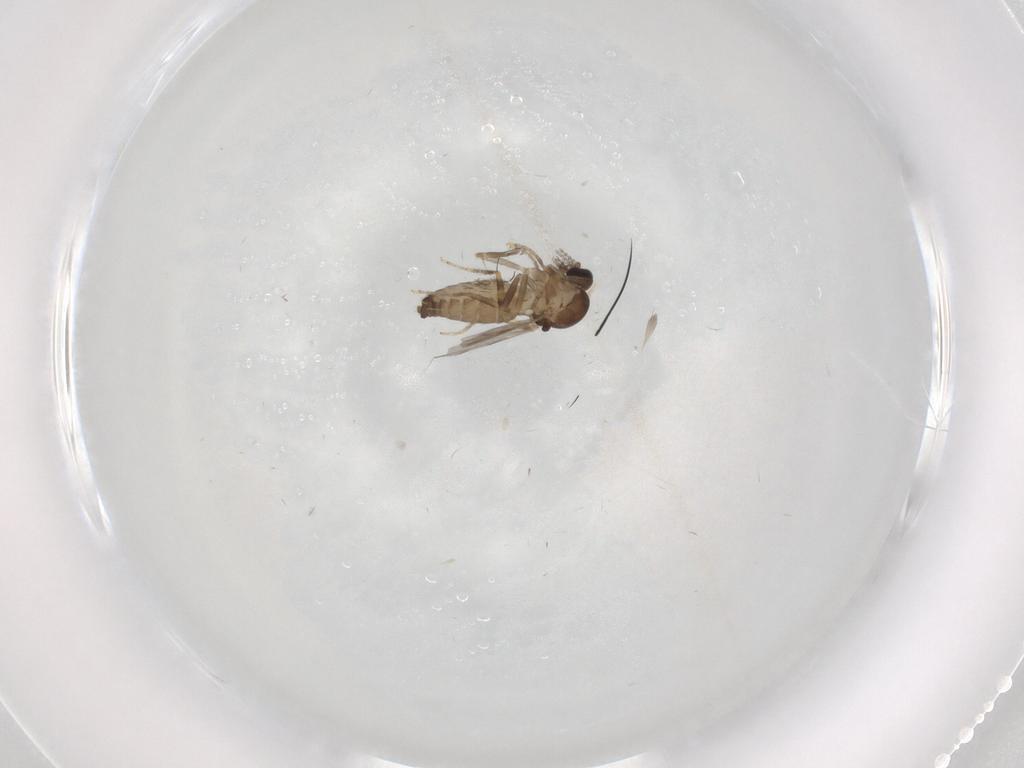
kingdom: Animalia
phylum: Arthropoda
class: Insecta
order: Diptera
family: Ceratopogonidae
